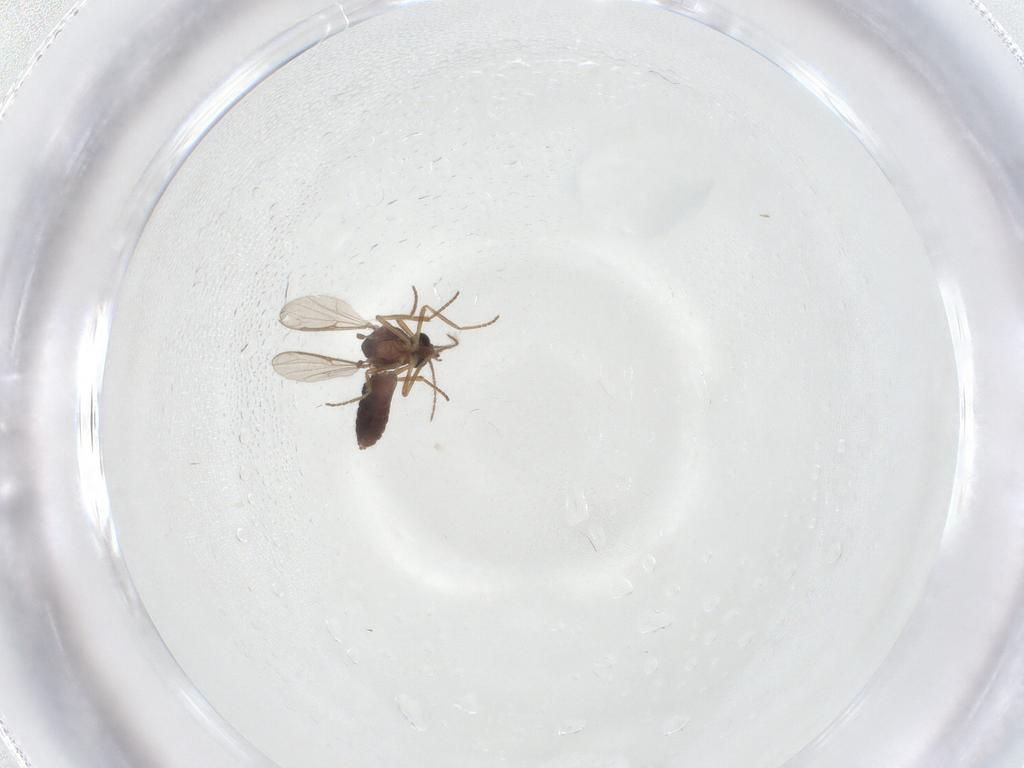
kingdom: Animalia
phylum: Arthropoda
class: Insecta
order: Diptera
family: Ceratopogonidae
